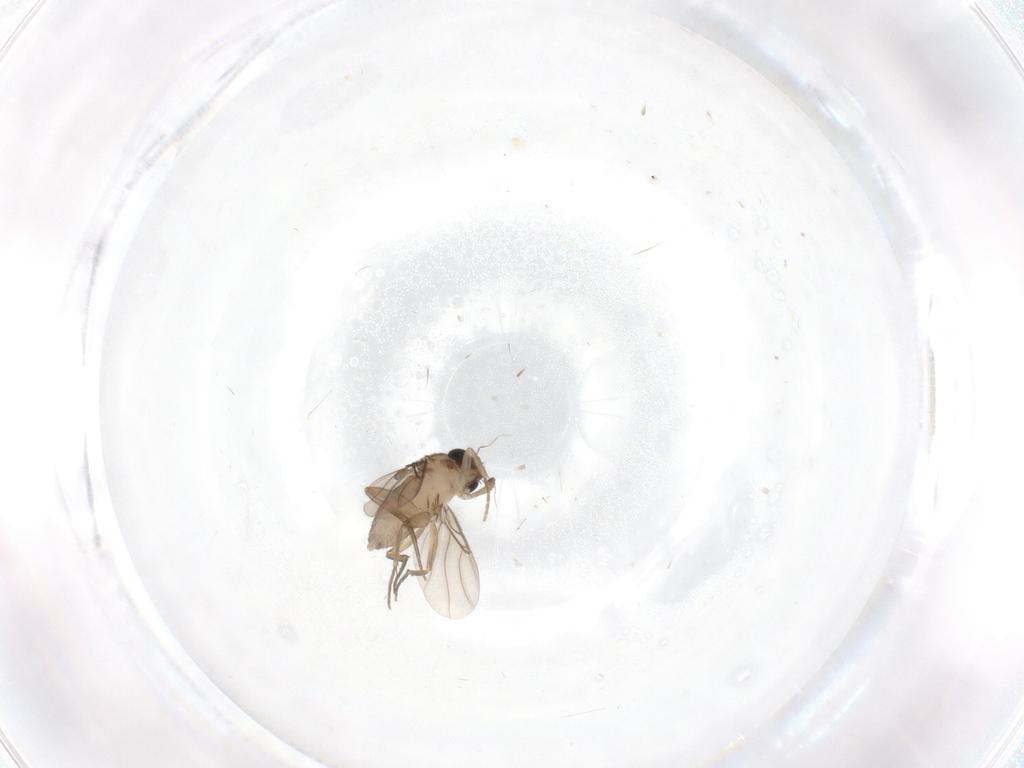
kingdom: Animalia
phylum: Arthropoda
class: Insecta
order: Diptera
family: Phoridae
